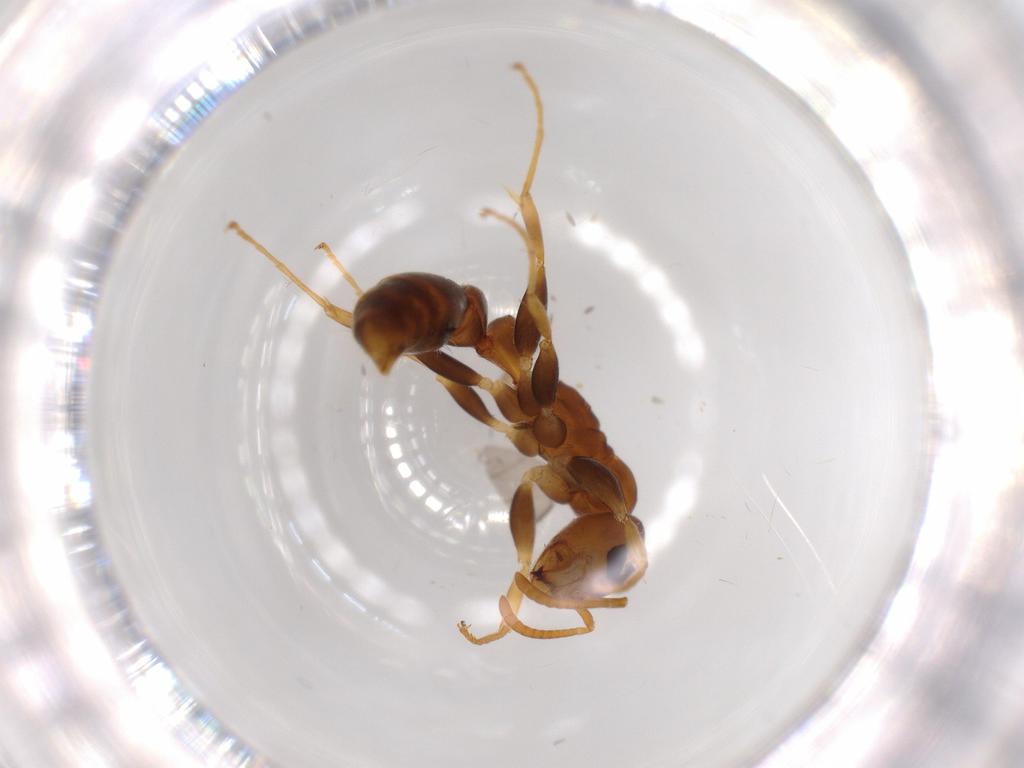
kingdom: Animalia
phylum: Arthropoda
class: Insecta
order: Hymenoptera
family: Formicidae
